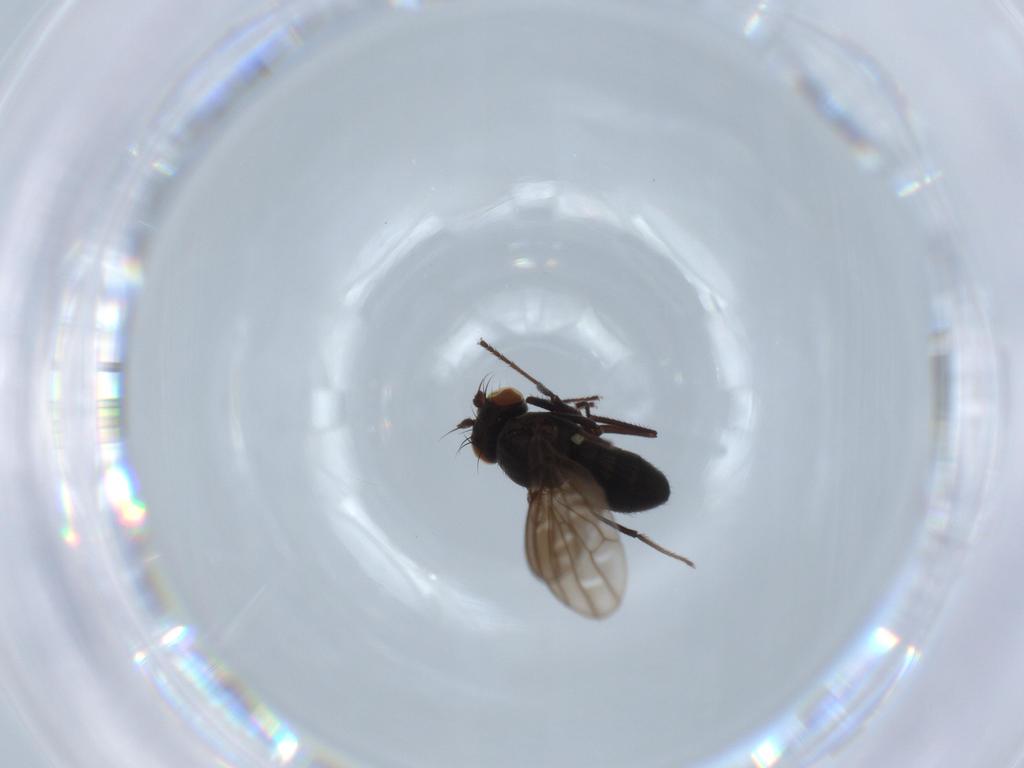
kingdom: Animalia
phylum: Arthropoda
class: Insecta
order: Diptera
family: Ephydridae
